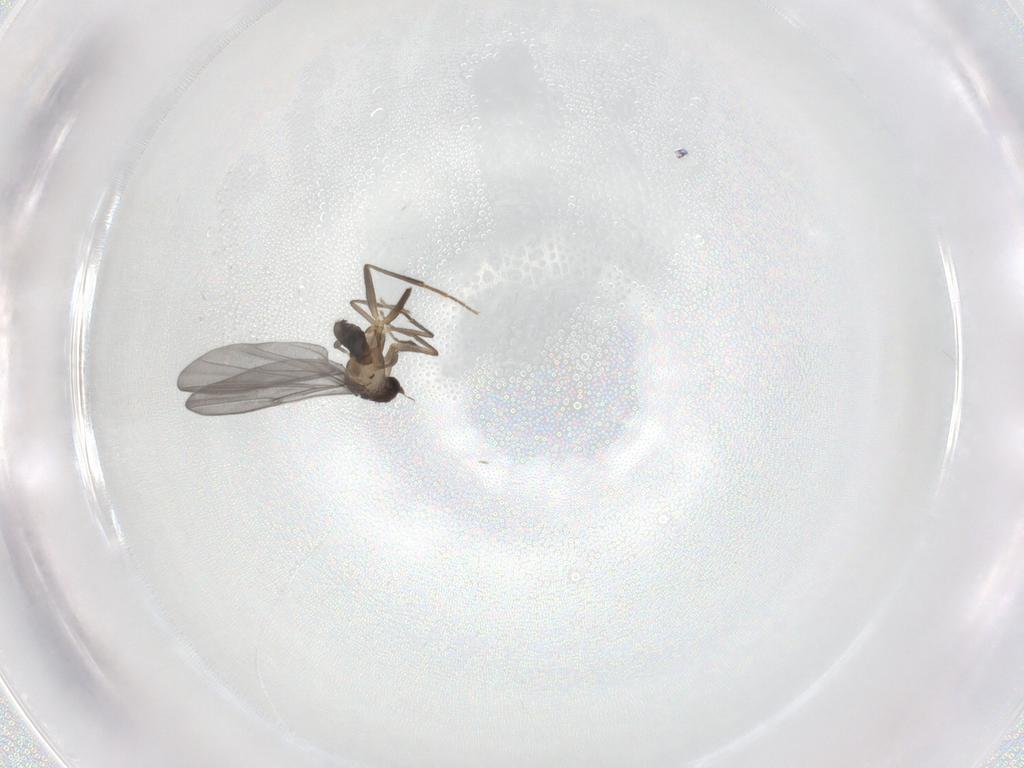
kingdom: Animalia
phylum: Arthropoda
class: Insecta
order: Diptera
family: Phoridae
